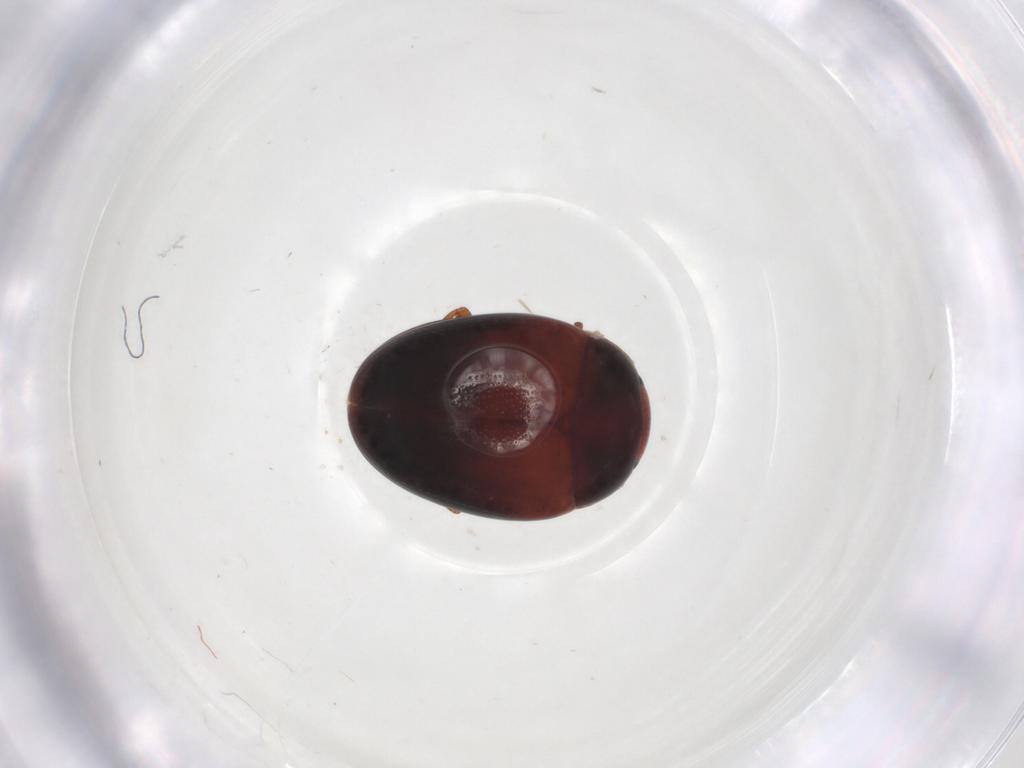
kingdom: Animalia
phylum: Arthropoda
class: Insecta
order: Coleoptera
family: Erotylidae
